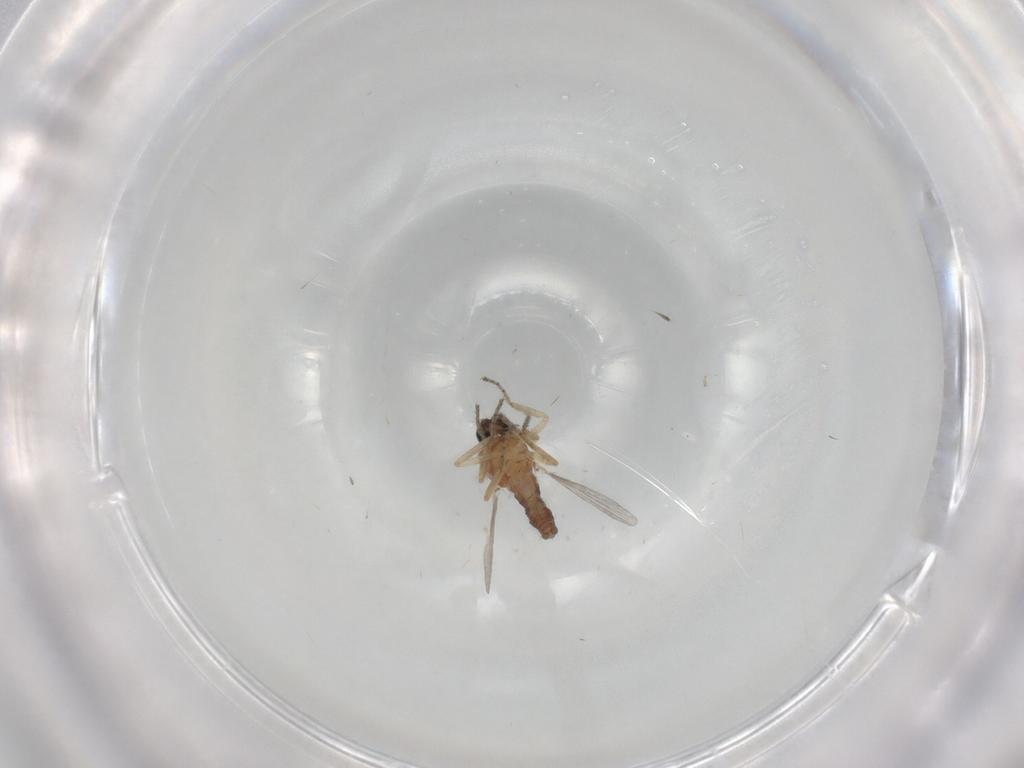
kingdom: Animalia
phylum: Arthropoda
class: Insecta
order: Diptera
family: Ceratopogonidae
